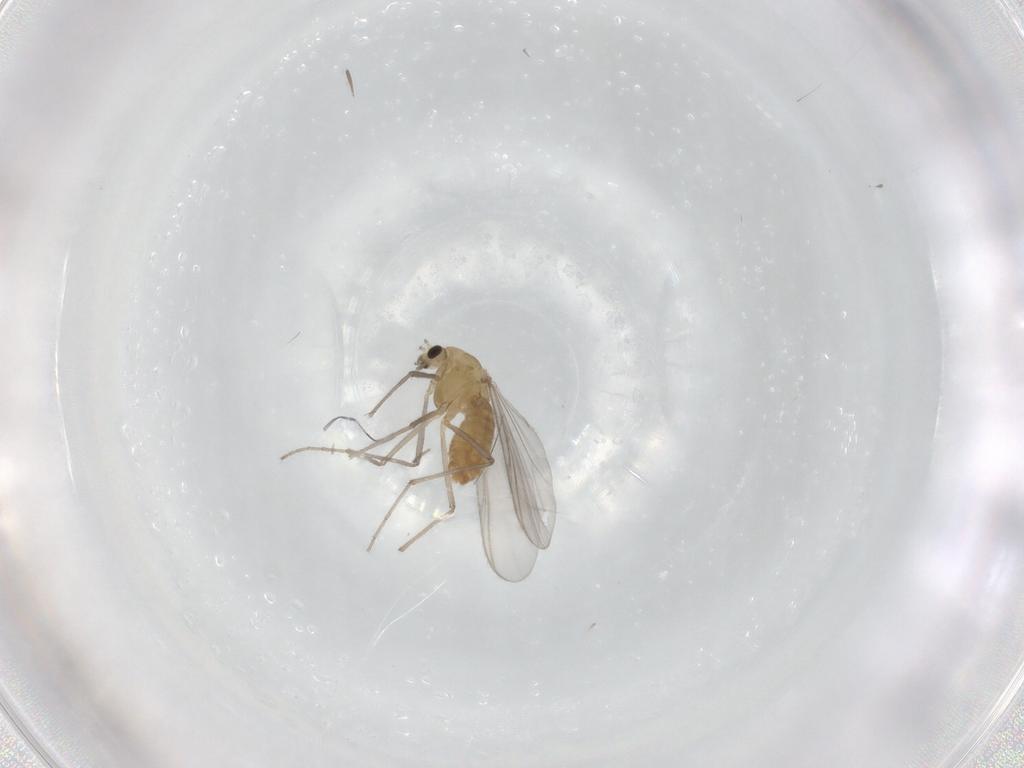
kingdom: Animalia
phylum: Arthropoda
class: Insecta
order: Diptera
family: Chironomidae
